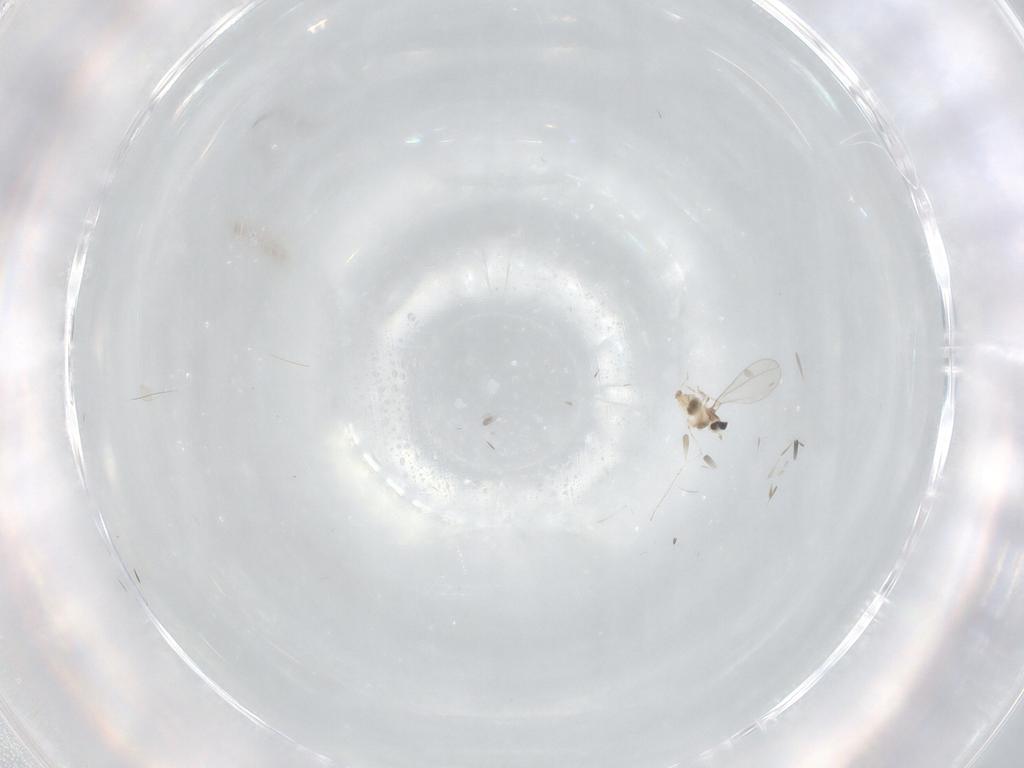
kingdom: Animalia
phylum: Arthropoda
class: Insecta
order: Diptera
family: Cecidomyiidae
